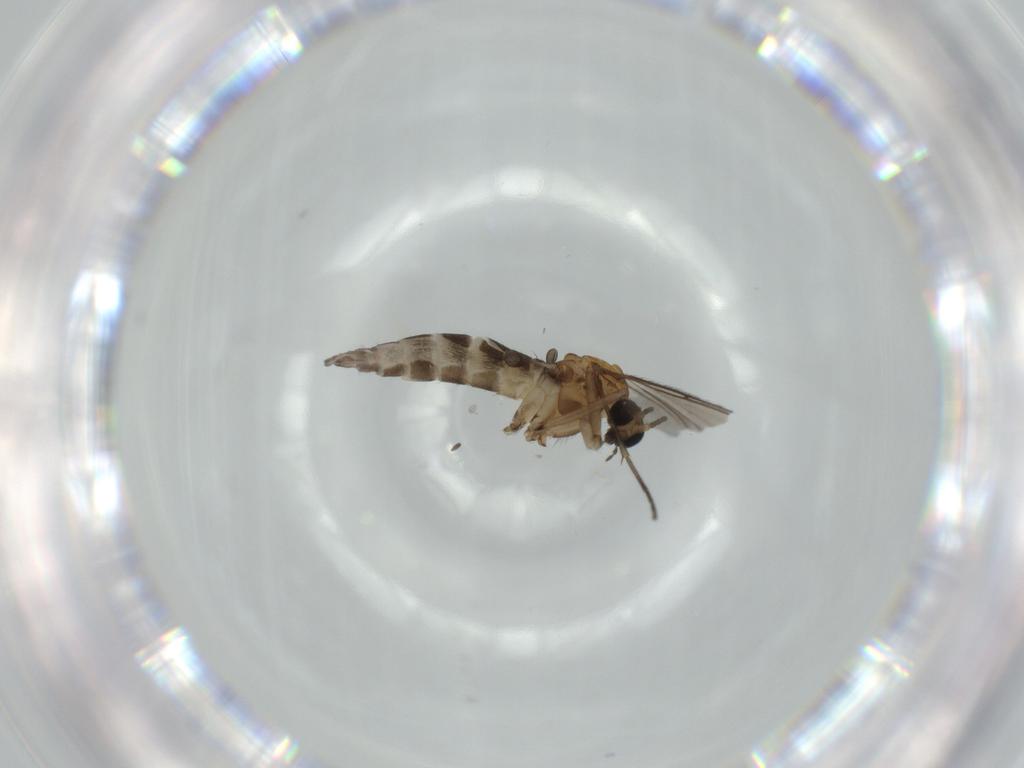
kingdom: Animalia
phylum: Arthropoda
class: Insecta
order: Diptera
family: Sciaridae
